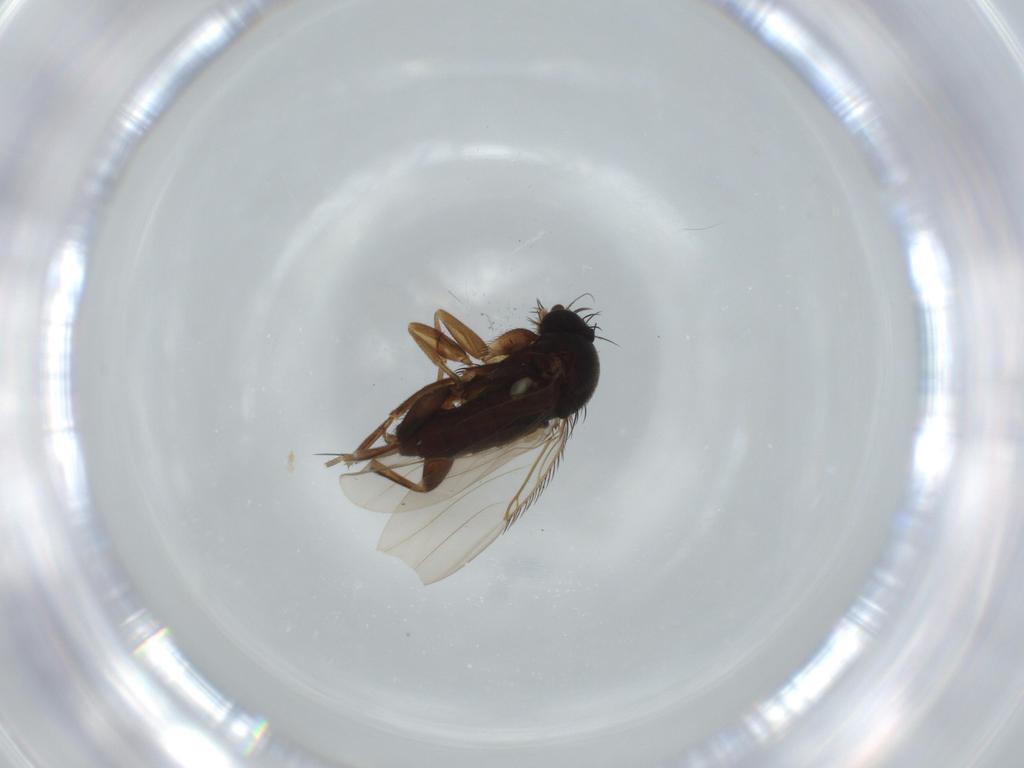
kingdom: Animalia
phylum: Arthropoda
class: Insecta
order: Diptera
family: Phoridae
